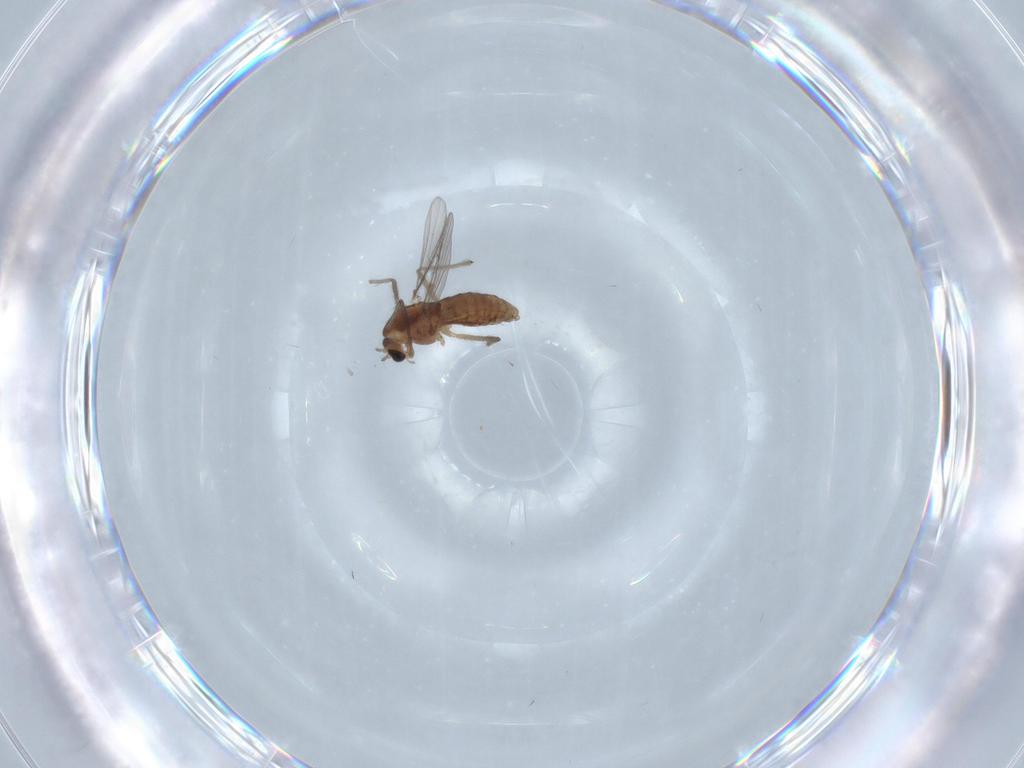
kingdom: Animalia
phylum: Arthropoda
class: Insecta
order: Diptera
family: Chironomidae
